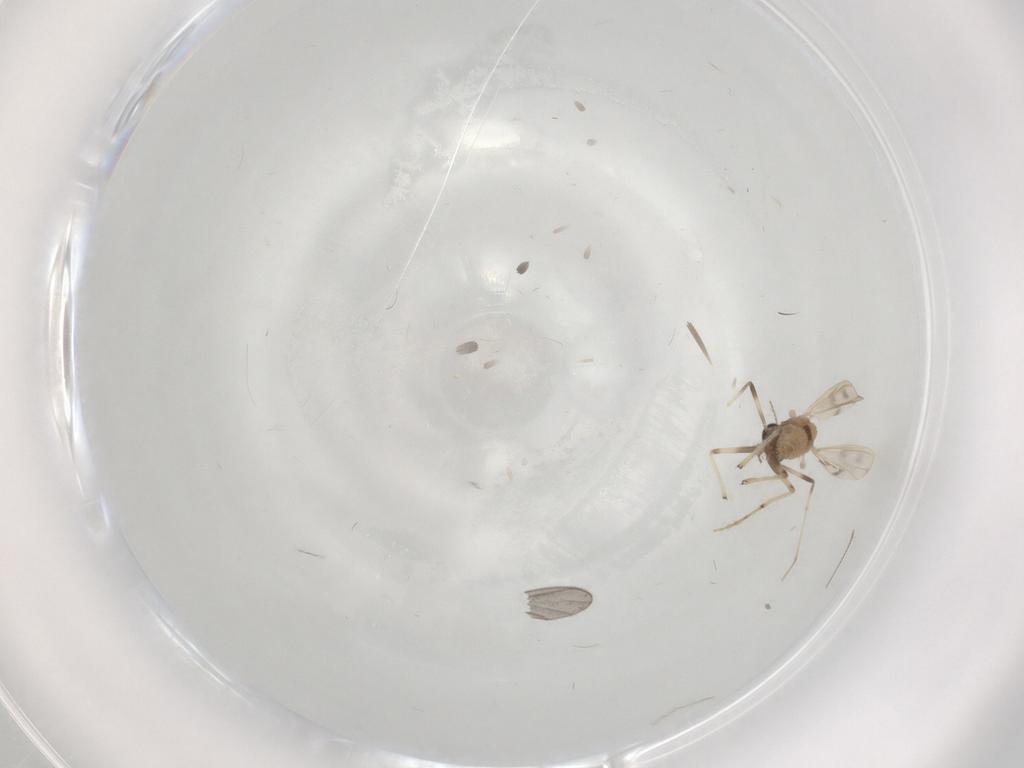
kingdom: Animalia
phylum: Arthropoda
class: Insecta
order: Diptera
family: Chironomidae
